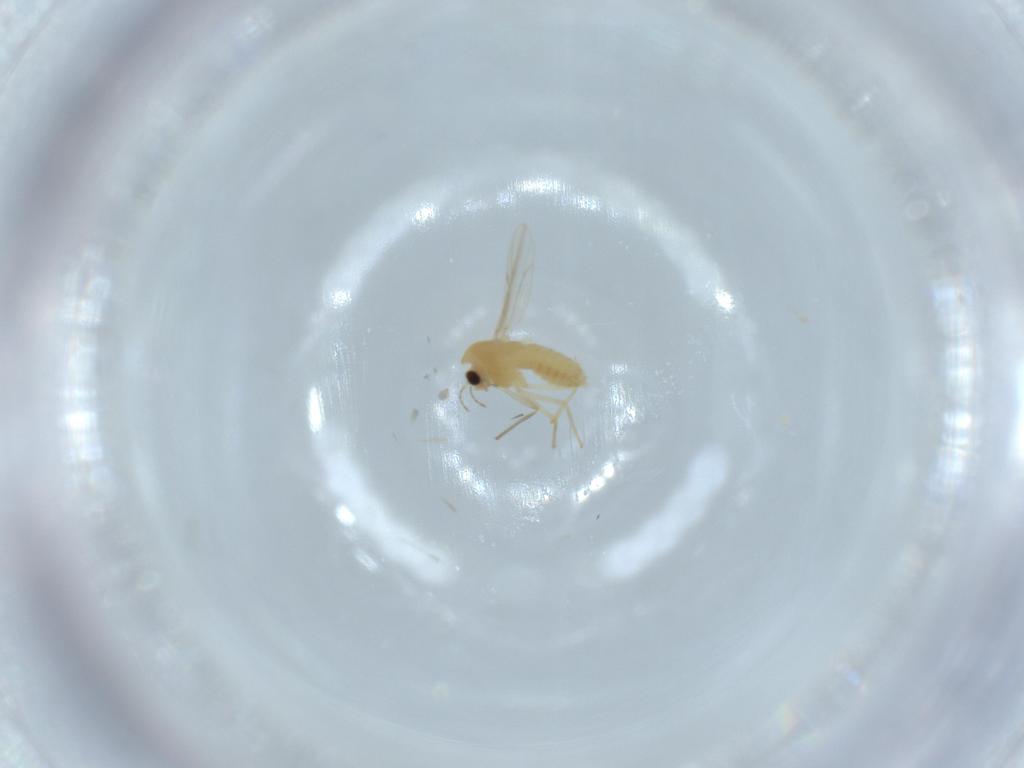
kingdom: Animalia
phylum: Arthropoda
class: Insecta
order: Diptera
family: Chironomidae
